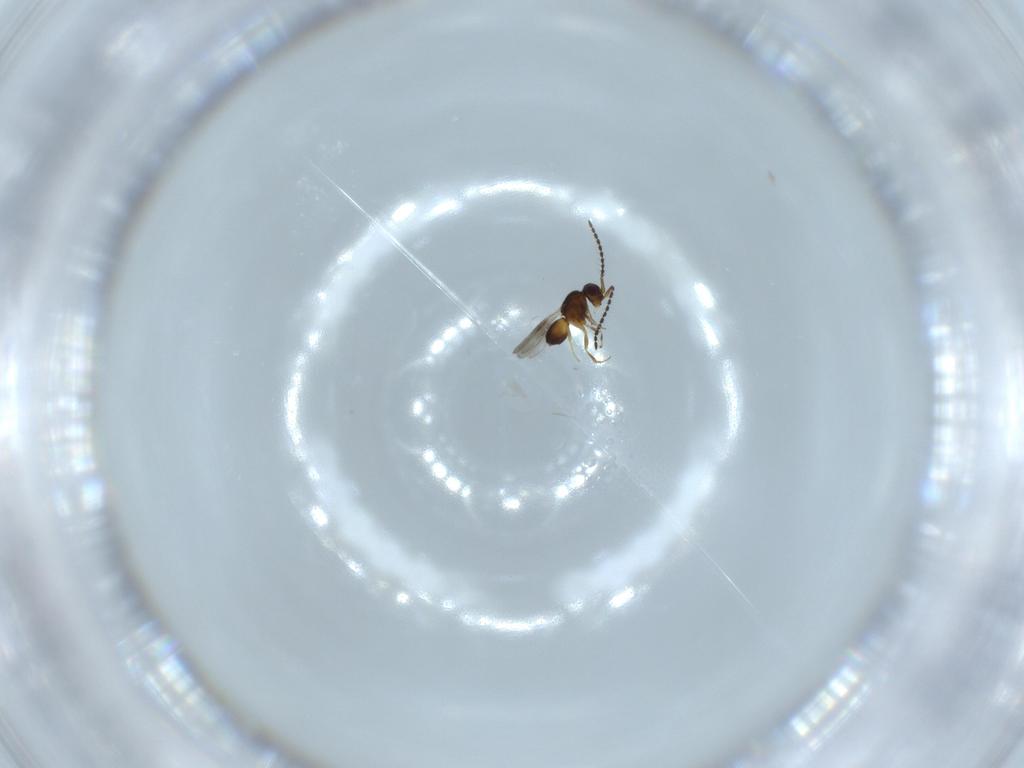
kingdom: Animalia
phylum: Arthropoda
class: Insecta
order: Hymenoptera
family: Ceraphronidae
